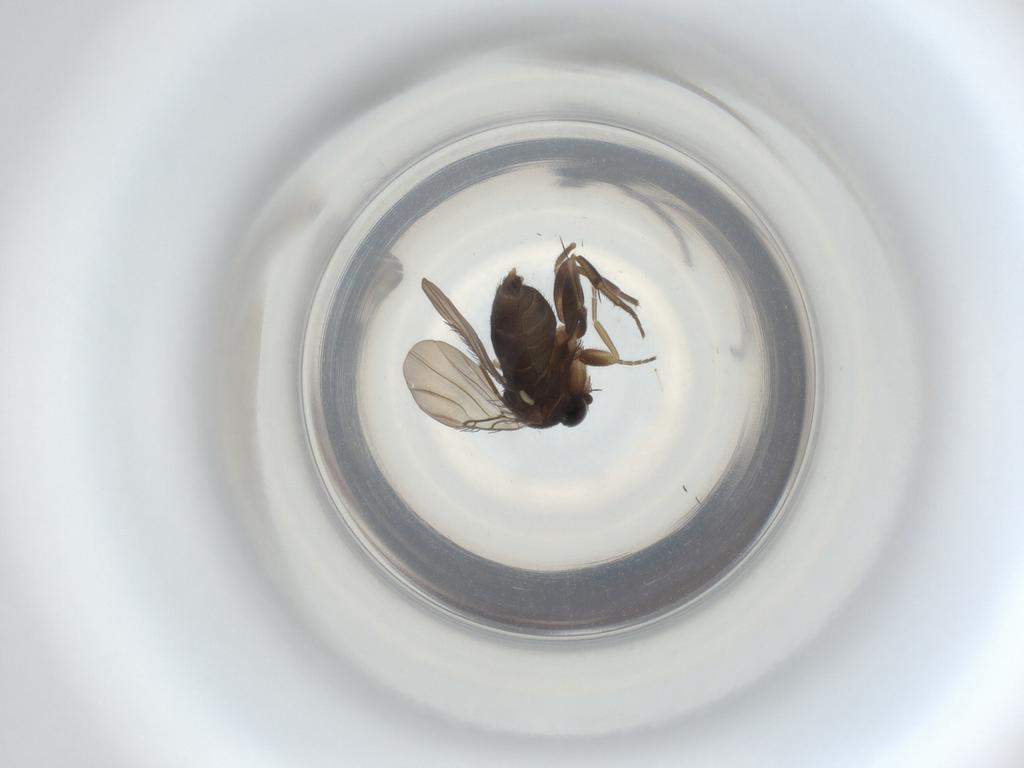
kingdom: Animalia
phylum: Arthropoda
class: Insecta
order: Diptera
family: Phoridae
